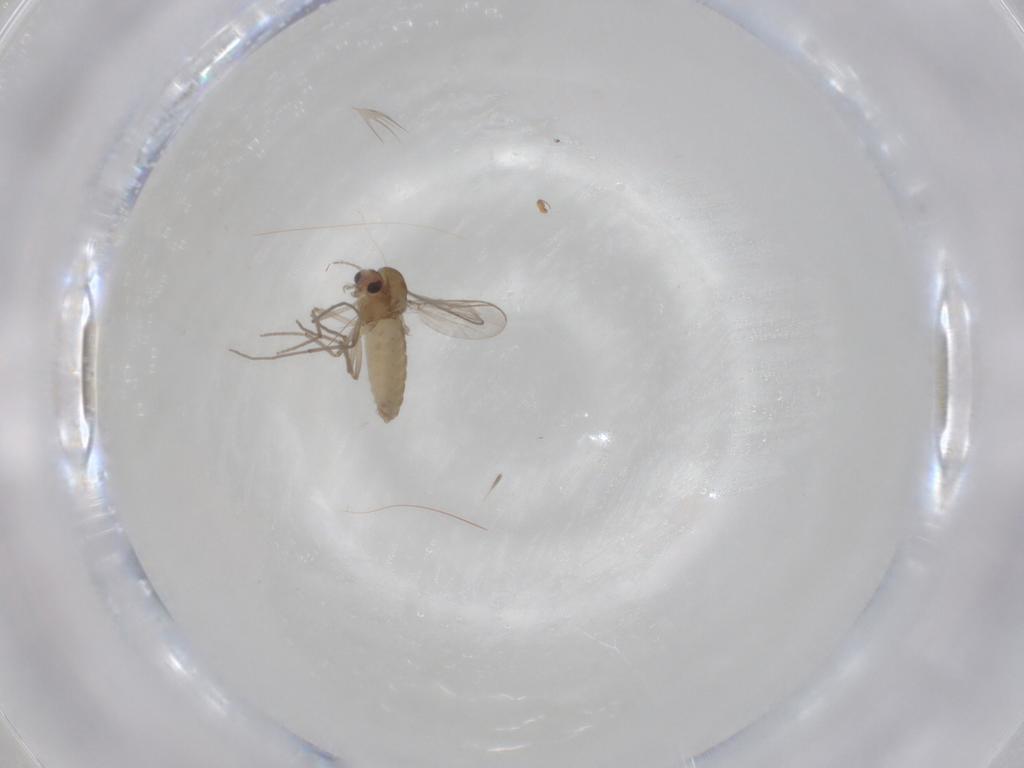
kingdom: Animalia
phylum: Arthropoda
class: Insecta
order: Diptera
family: Chironomidae
